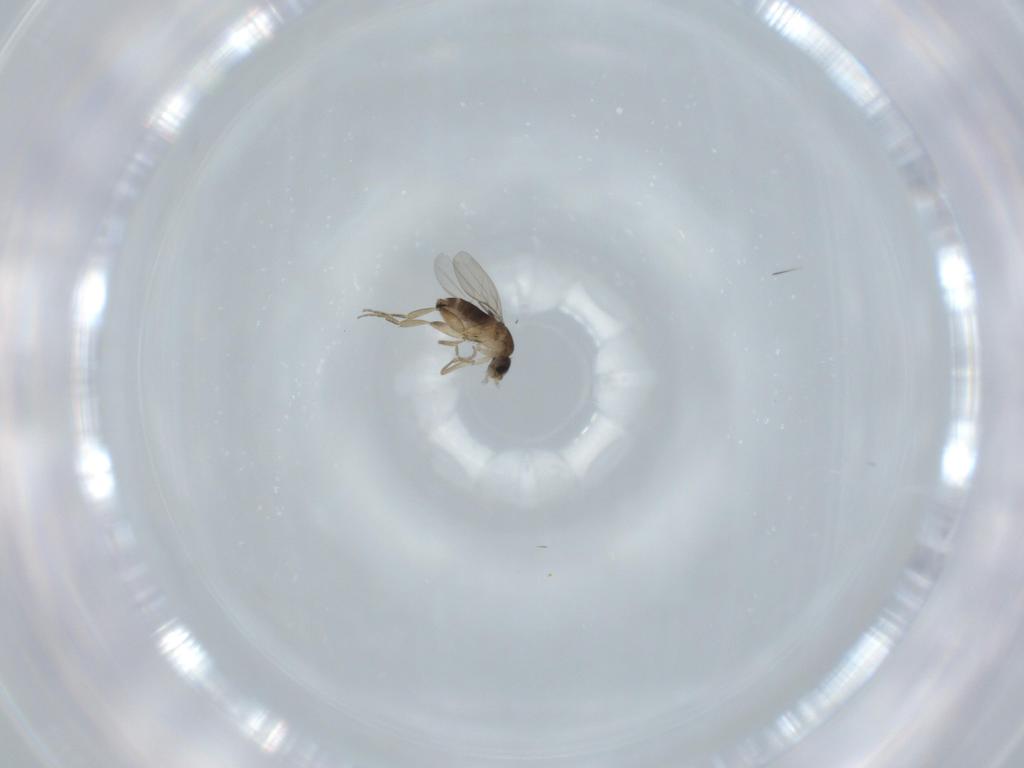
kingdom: Animalia
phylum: Arthropoda
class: Insecta
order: Diptera
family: Phoridae
